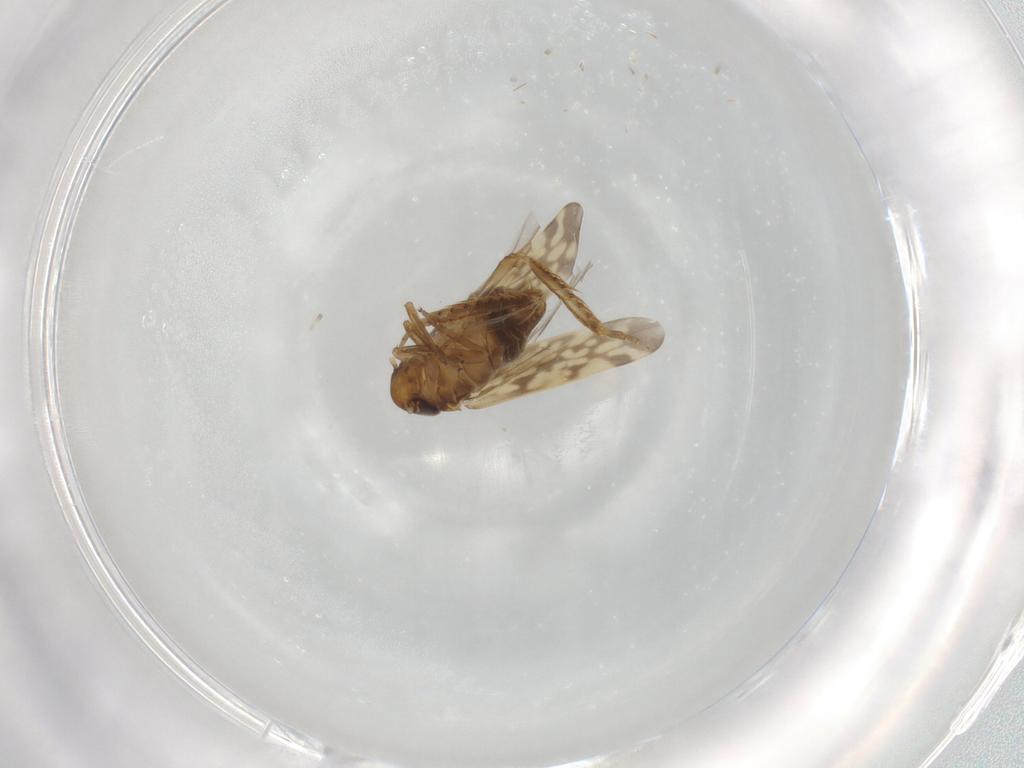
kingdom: Animalia
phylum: Arthropoda
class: Insecta
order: Hemiptera
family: Cicadellidae
